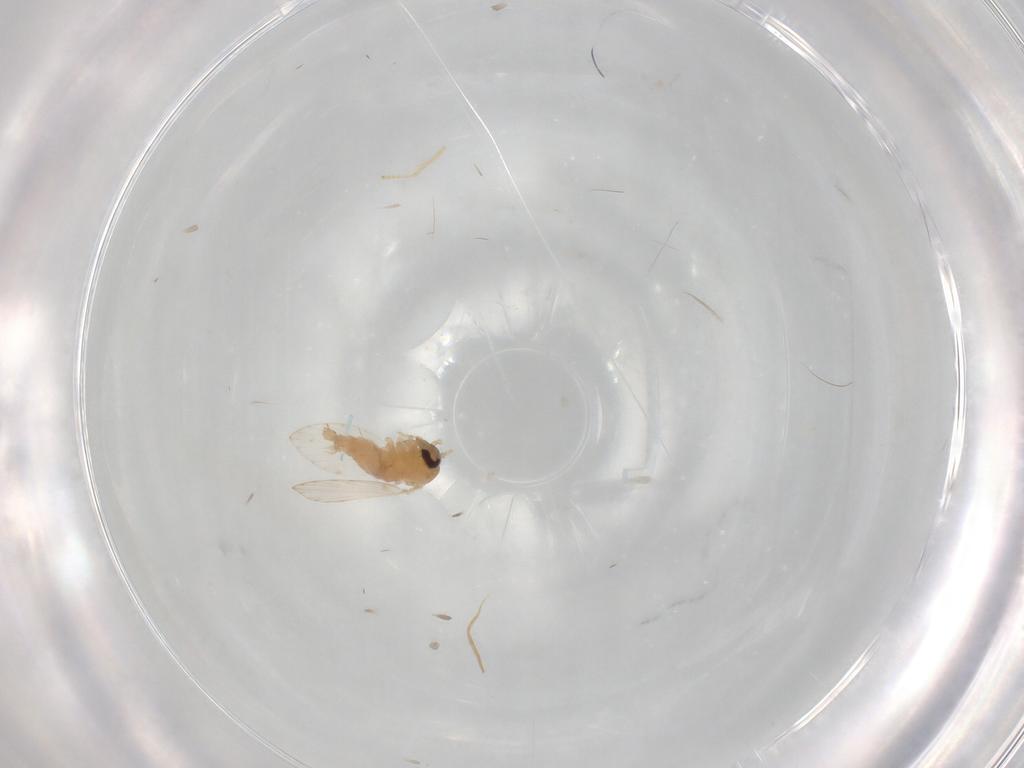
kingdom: Animalia
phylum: Arthropoda
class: Insecta
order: Diptera
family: Psychodidae
